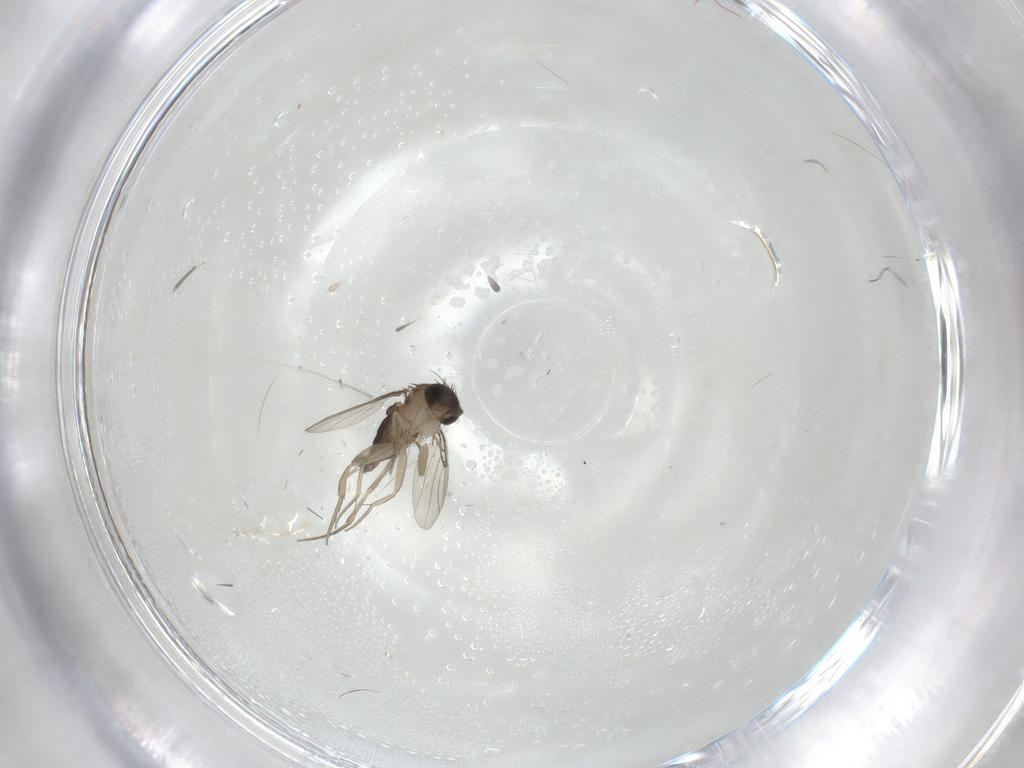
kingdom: Animalia
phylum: Arthropoda
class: Insecta
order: Diptera
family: Phoridae
